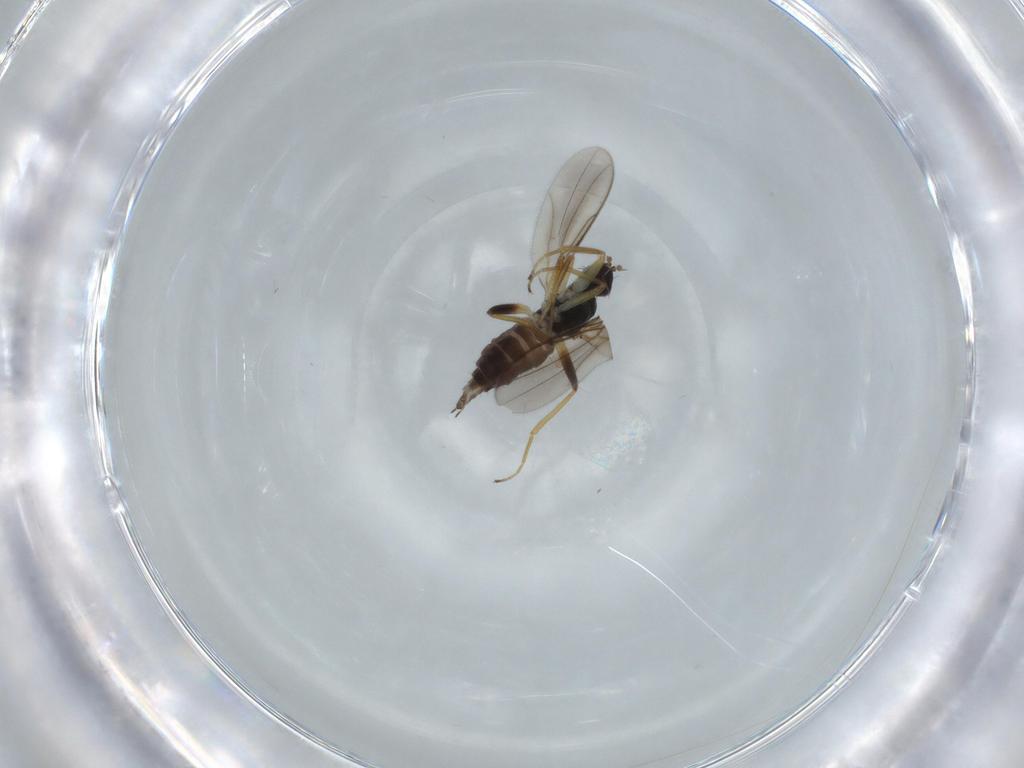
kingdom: Animalia
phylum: Arthropoda
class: Insecta
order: Diptera
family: Hybotidae
